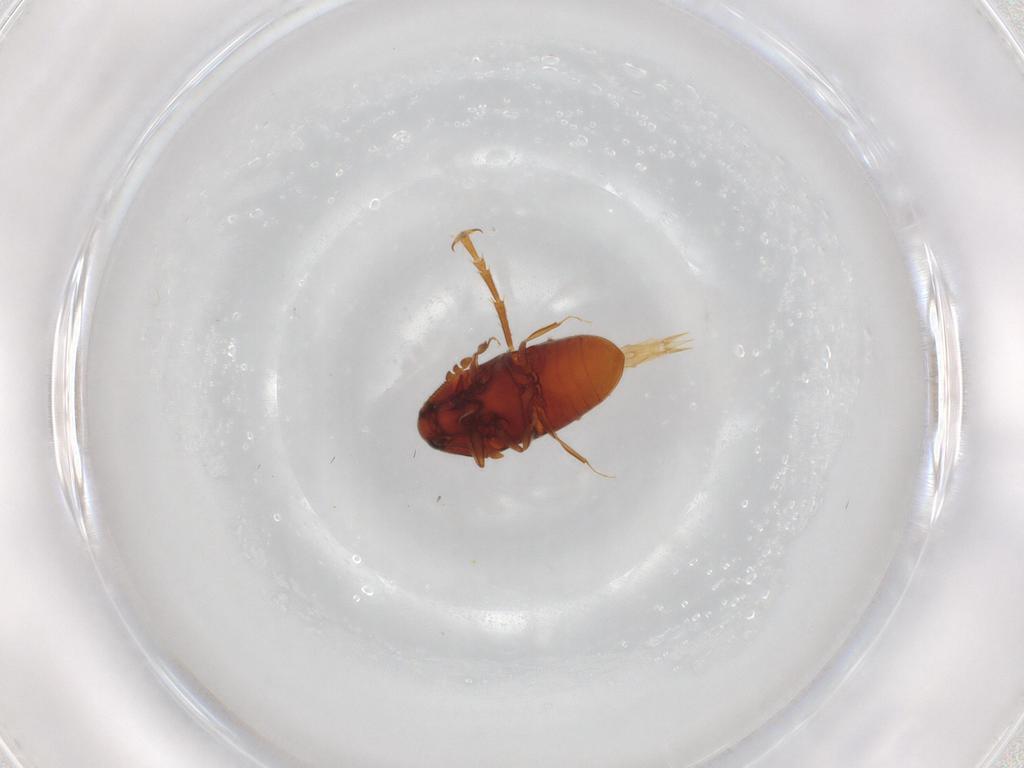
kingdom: Animalia
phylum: Arthropoda
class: Insecta
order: Coleoptera
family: Throscidae
